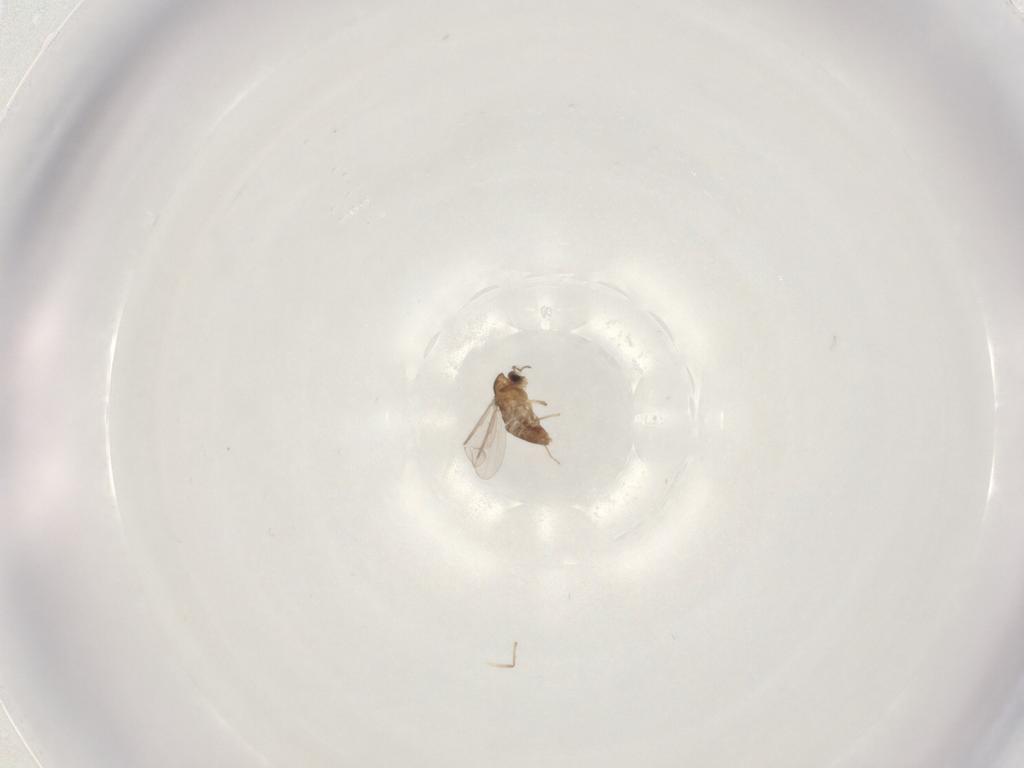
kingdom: Animalia
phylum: Arthropoda
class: Insecta
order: Diptera
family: Chironomidae
